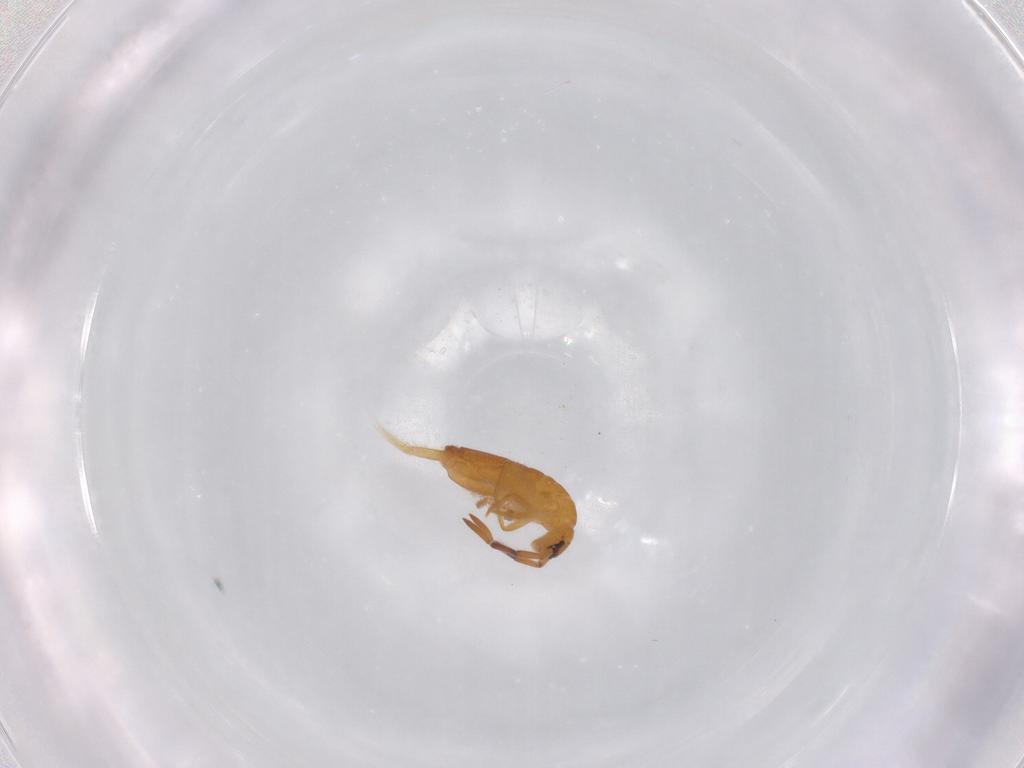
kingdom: Animalia
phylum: Arthropoda
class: Collembola
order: Entomobryomorpha
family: Entomobryidae
